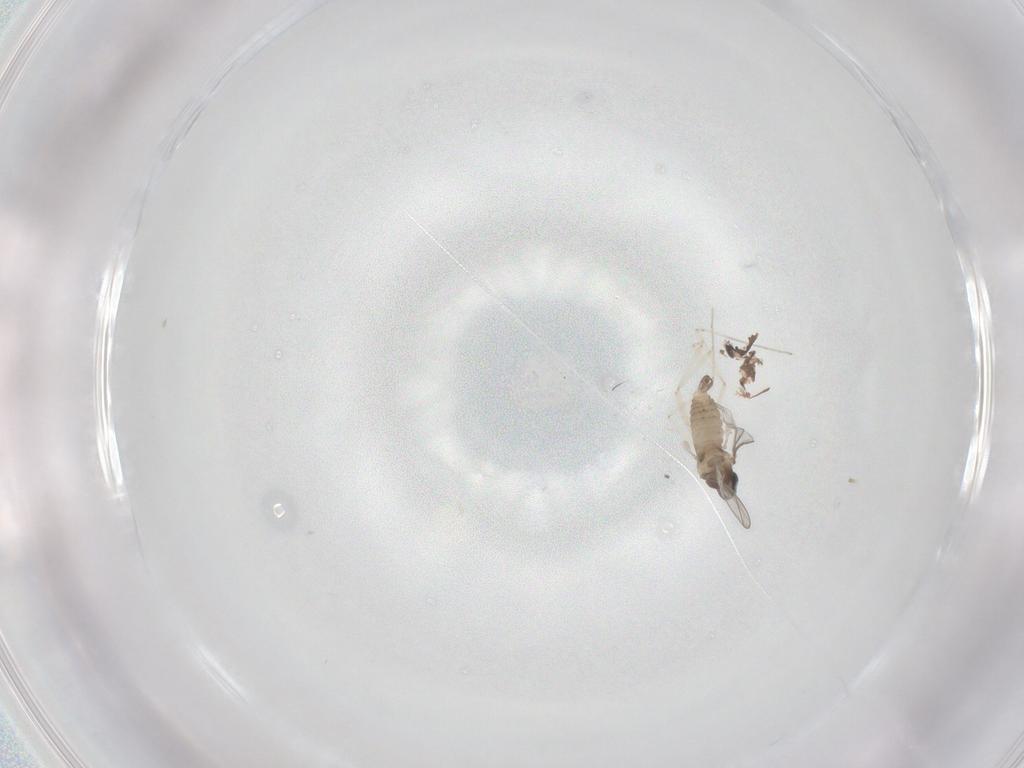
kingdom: Animalia
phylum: Arthropoda
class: Insecta
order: Diptera
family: Cecidomyiidae
